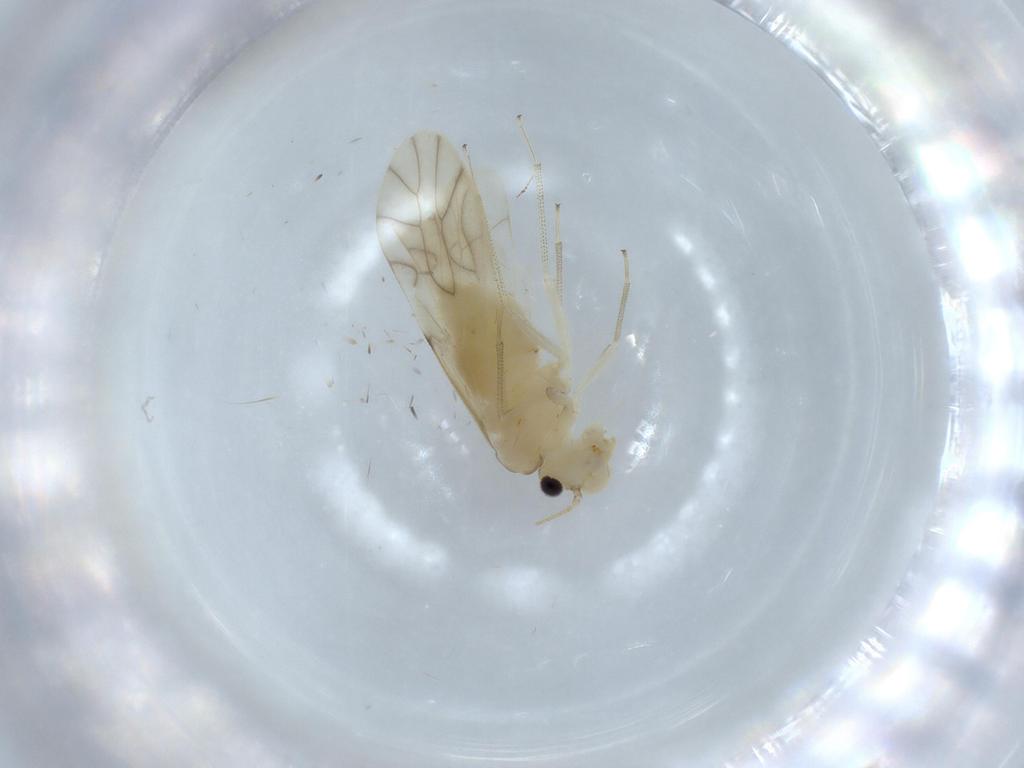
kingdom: Animalia
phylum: Arthropoda
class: Insecta
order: Psocodea
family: Caeciliusidae
